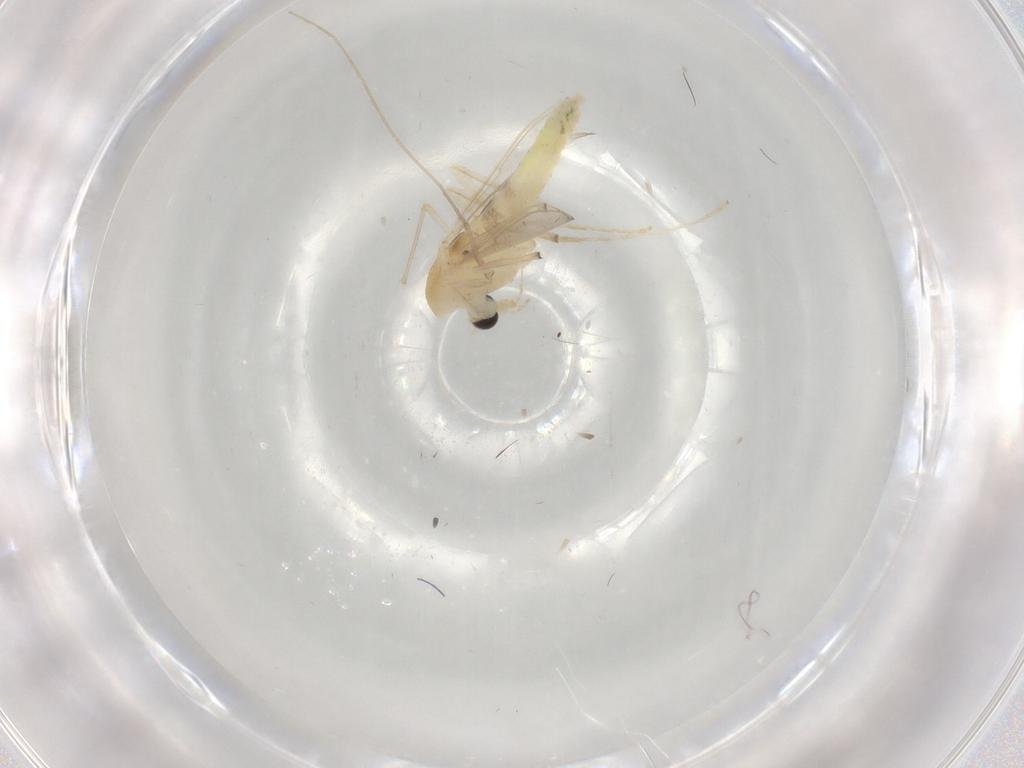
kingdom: Animalia
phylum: Arthropoda
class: Insecta
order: Diptera
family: Chironomidae
